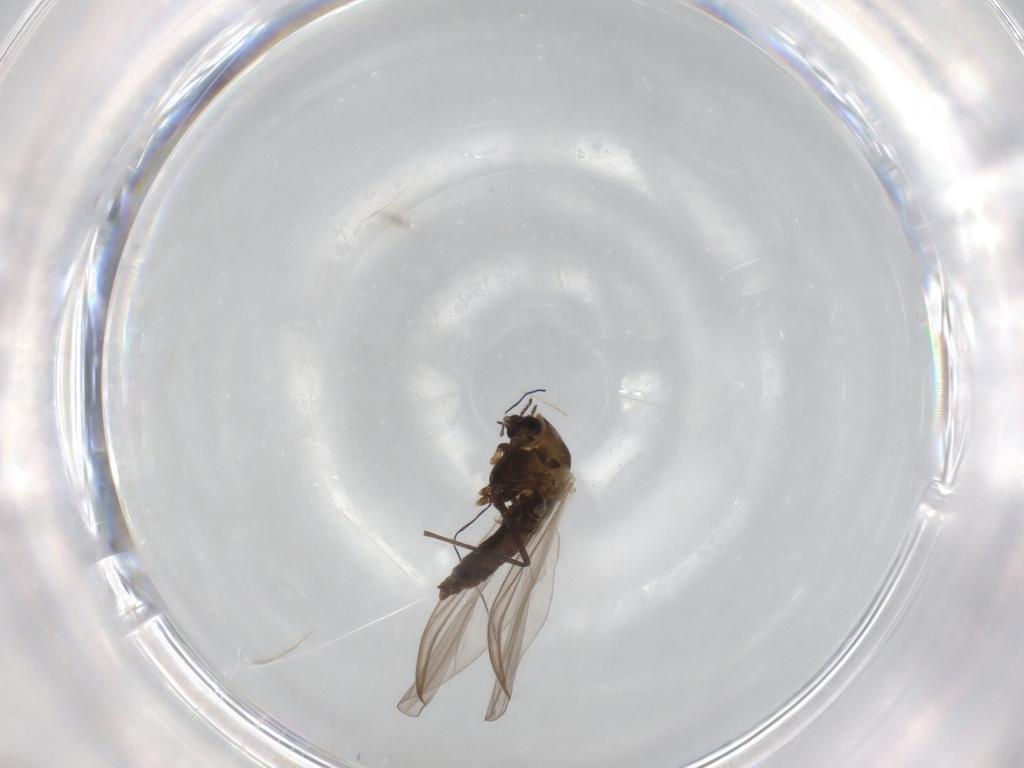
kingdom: Animalia
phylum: Arthropoda
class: Insecta
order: Diptera
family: Chironomidae
